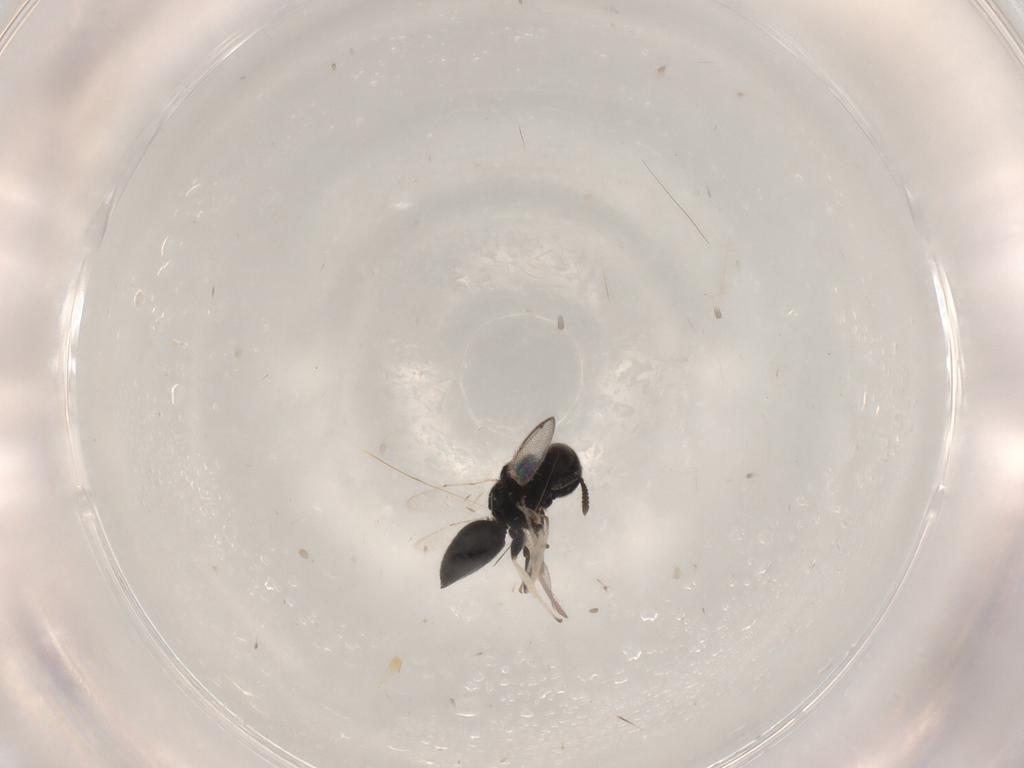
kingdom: Animalia
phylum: Arthropoda
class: Insecta
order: Hymenoptera
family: Herbertiidae
